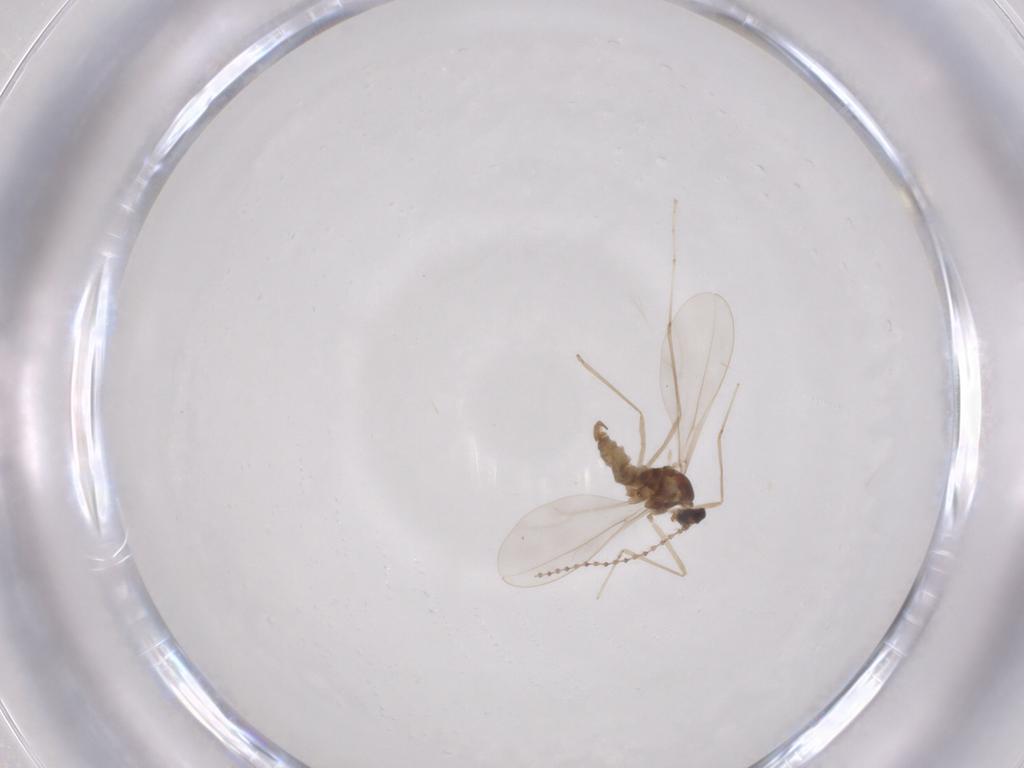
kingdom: Animalia
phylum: Arthropoda
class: Insecta
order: Diptera
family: Cecidomyiidae
